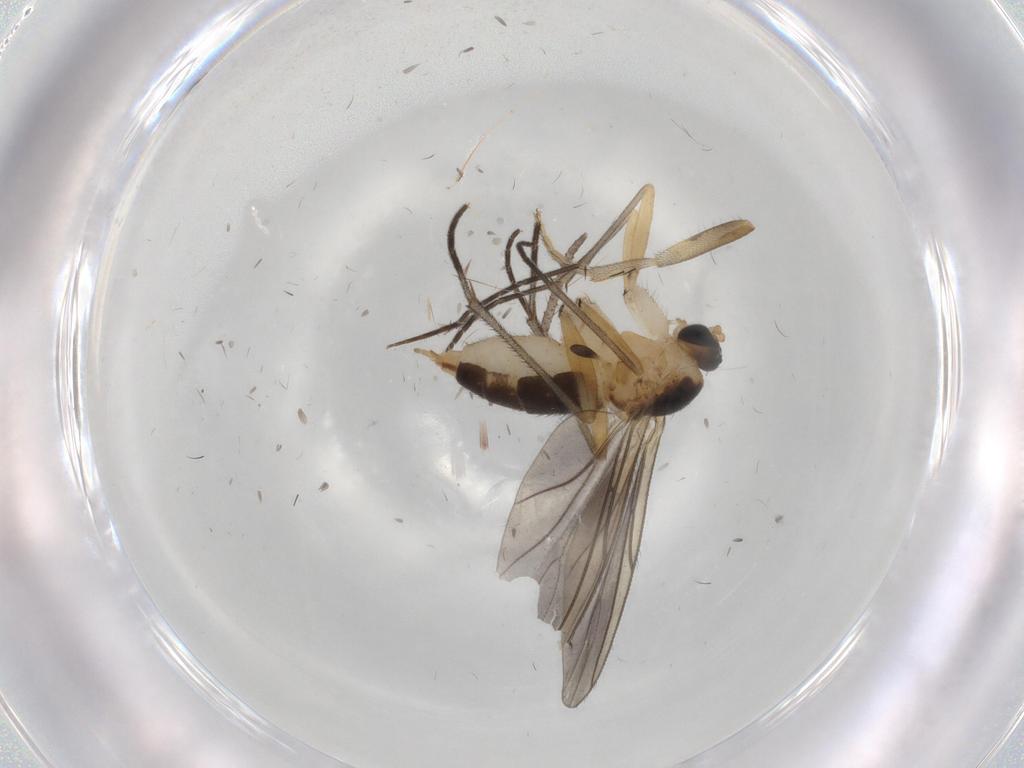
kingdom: Animalia
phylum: Arthropoda
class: Insecta
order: Diptera
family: Sciaridae
